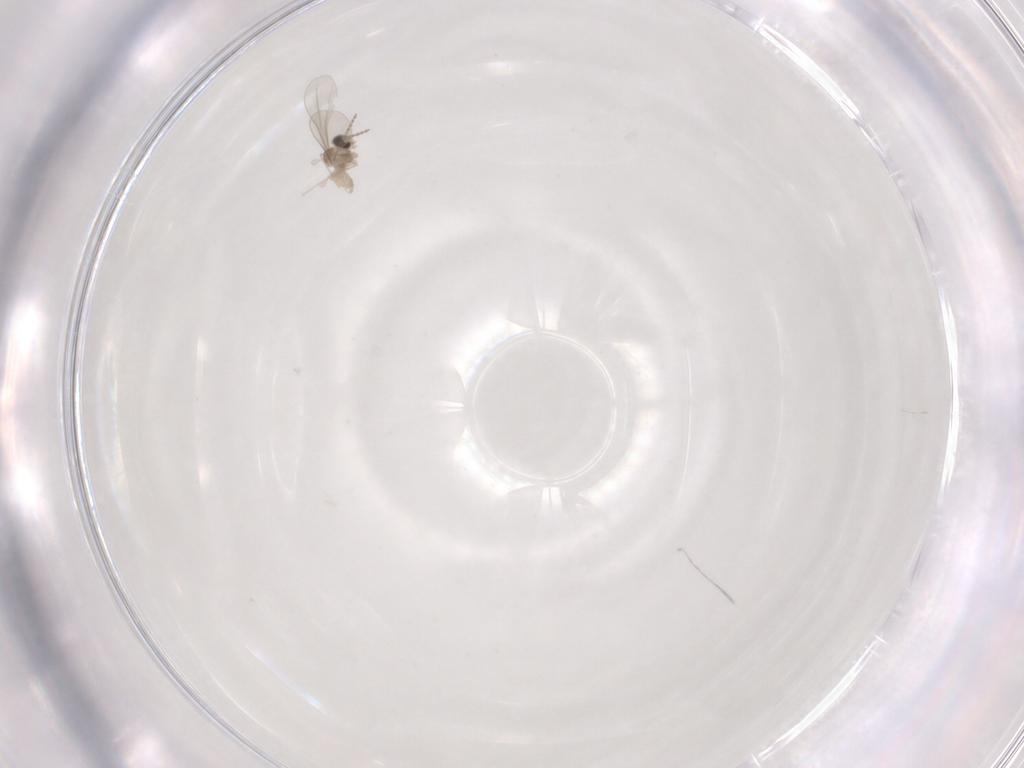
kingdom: Animalia
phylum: Arthropoda
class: Insecta
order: Diptera
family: Cecidomyiidae
